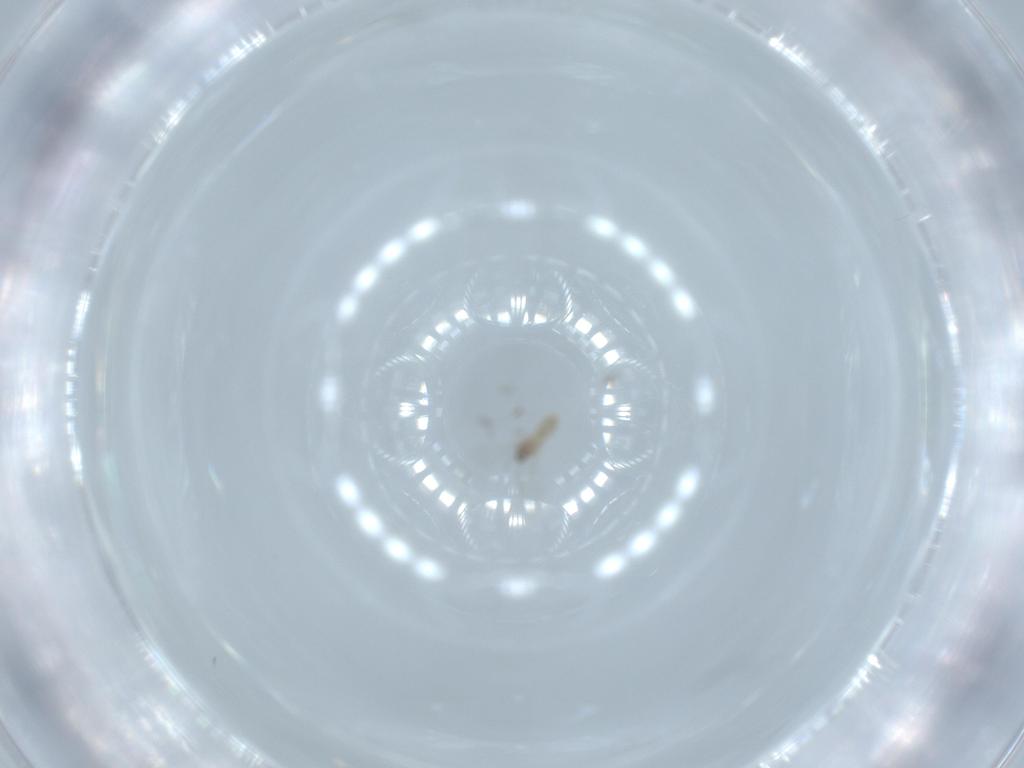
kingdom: Animalia
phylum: Arthropoda
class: Insecta
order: Diptera
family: Cecidomyiidae
